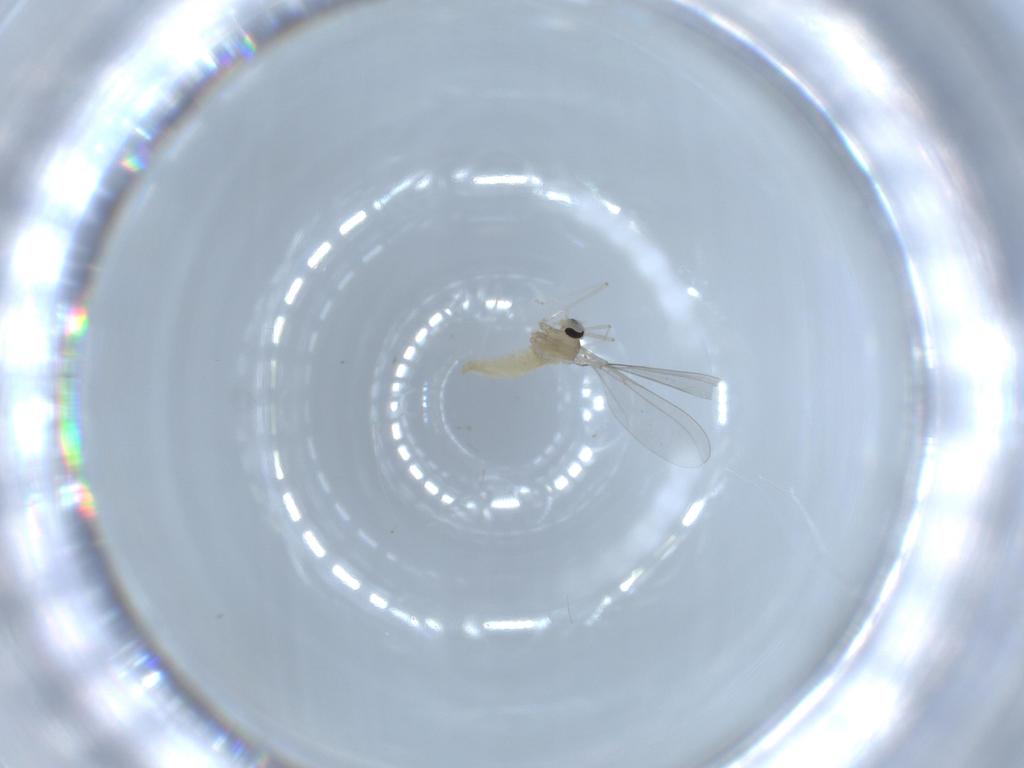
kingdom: Animalia
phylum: Arthropoda
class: Insecta
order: Diptera
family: Cecidomyiidae
